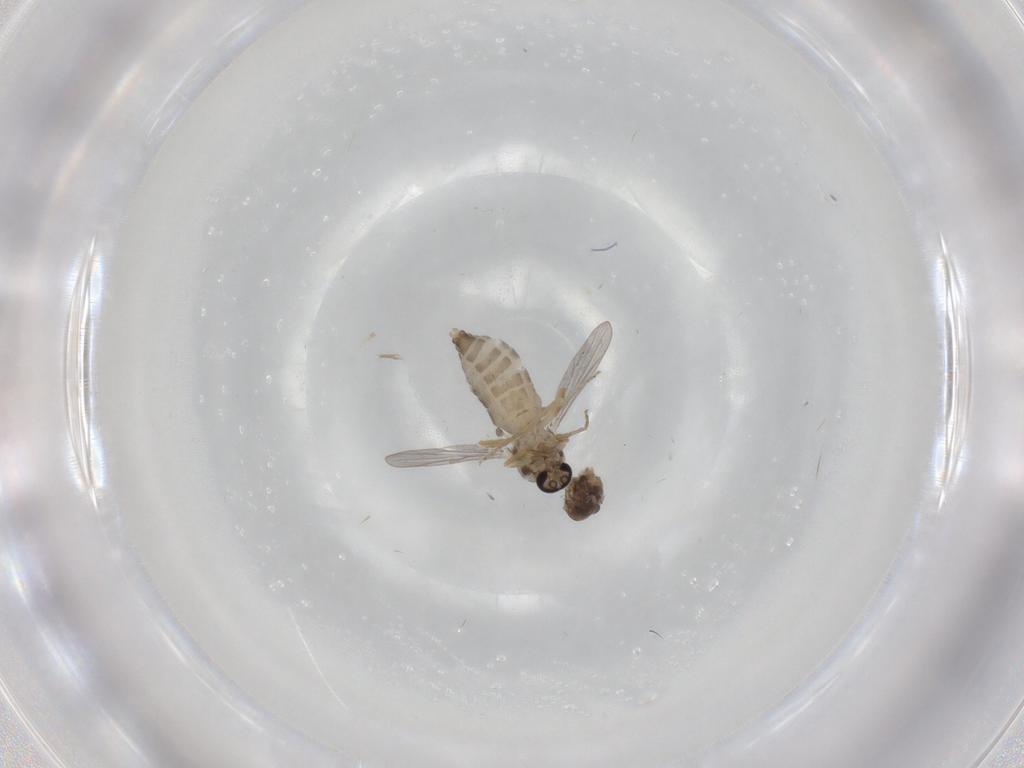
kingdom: Animalia
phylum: Arthropoda
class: Insecta
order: Diptera
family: Ceratopogonidae
